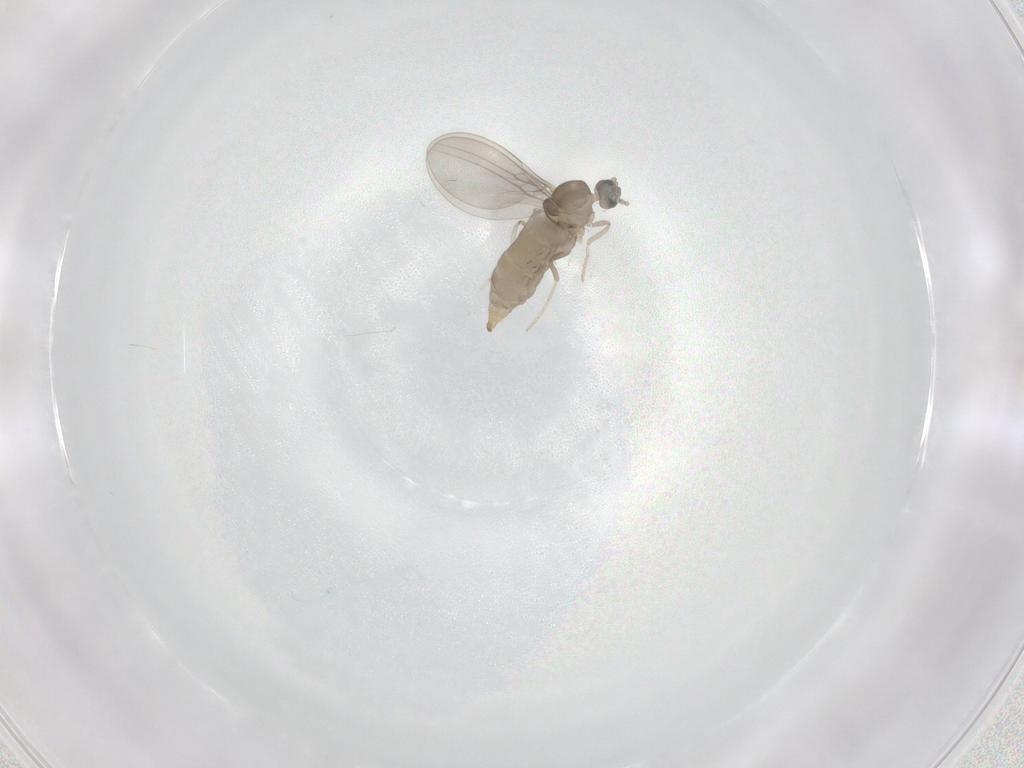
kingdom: Animalia
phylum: Arthropoda
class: Insecta
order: Diptera
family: Cecidomyiidae
